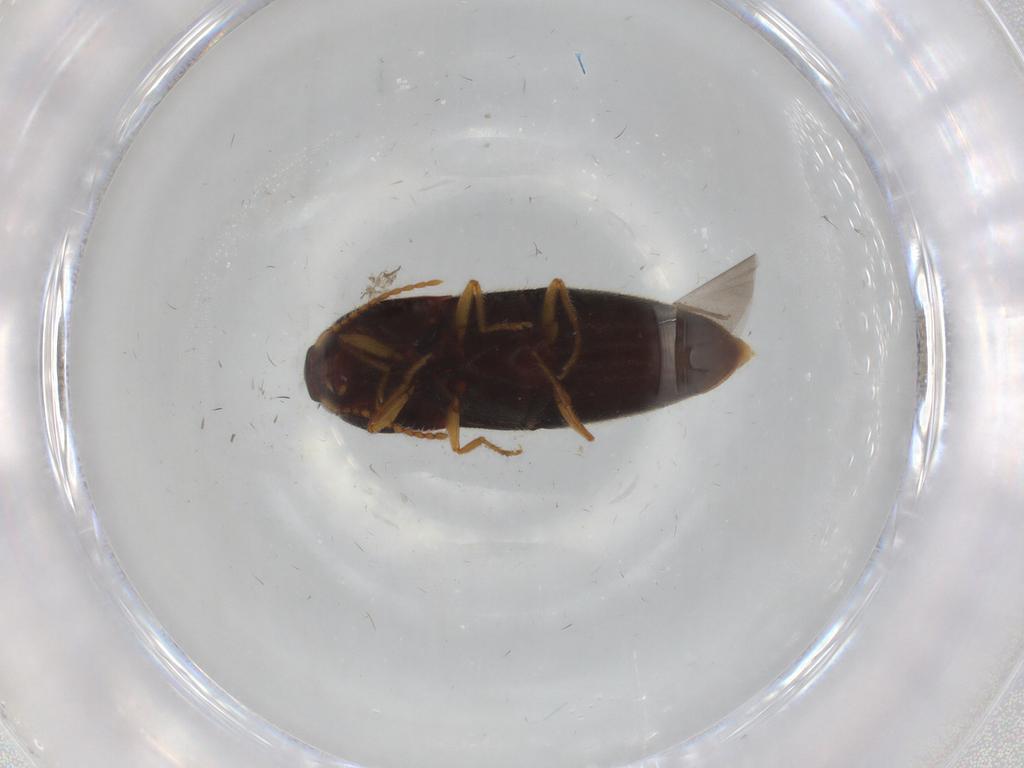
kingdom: Animalia
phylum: Arthropoda
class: Insecta
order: Coleoptera
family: Elateridae
